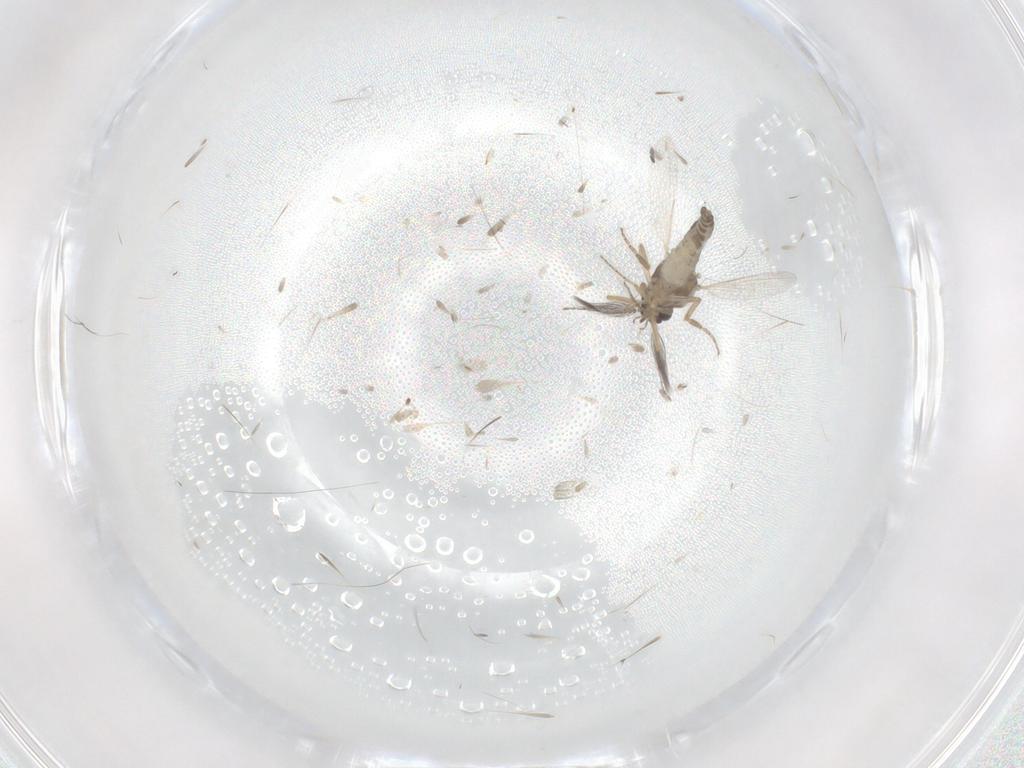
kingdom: Animalia
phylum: Arthropoda
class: Insecta
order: Diptera
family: Ceratopogonidae
